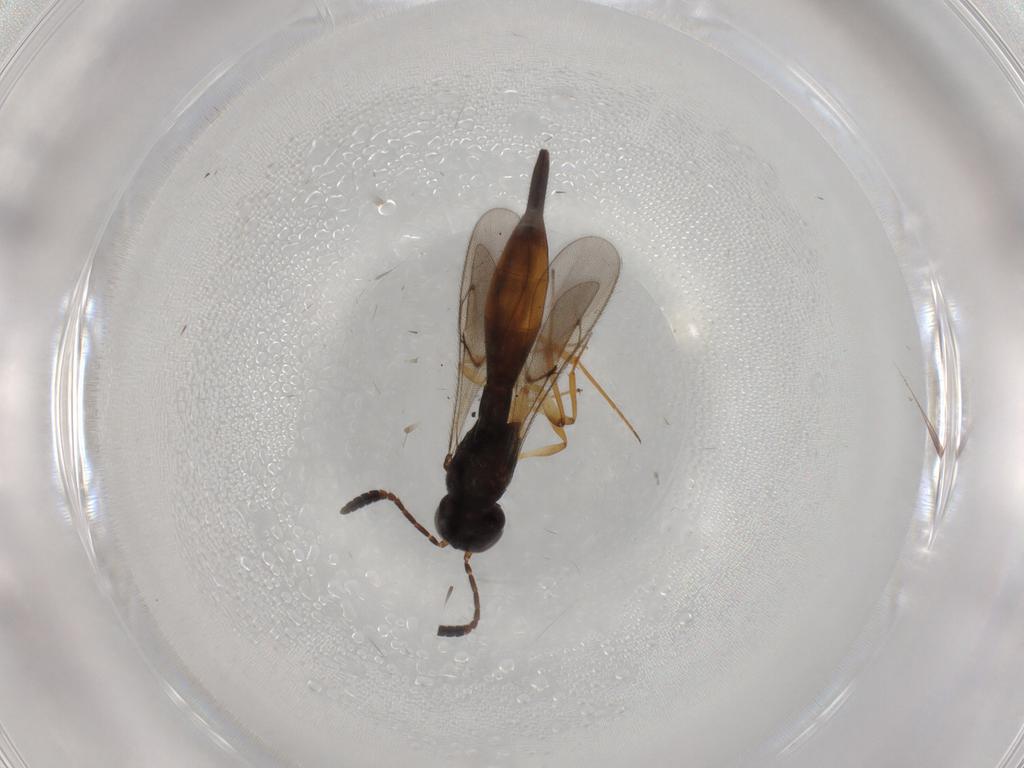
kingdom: Animalia
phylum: Arthropoda
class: Insecta
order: Hymenoptera
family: Scelionidae
